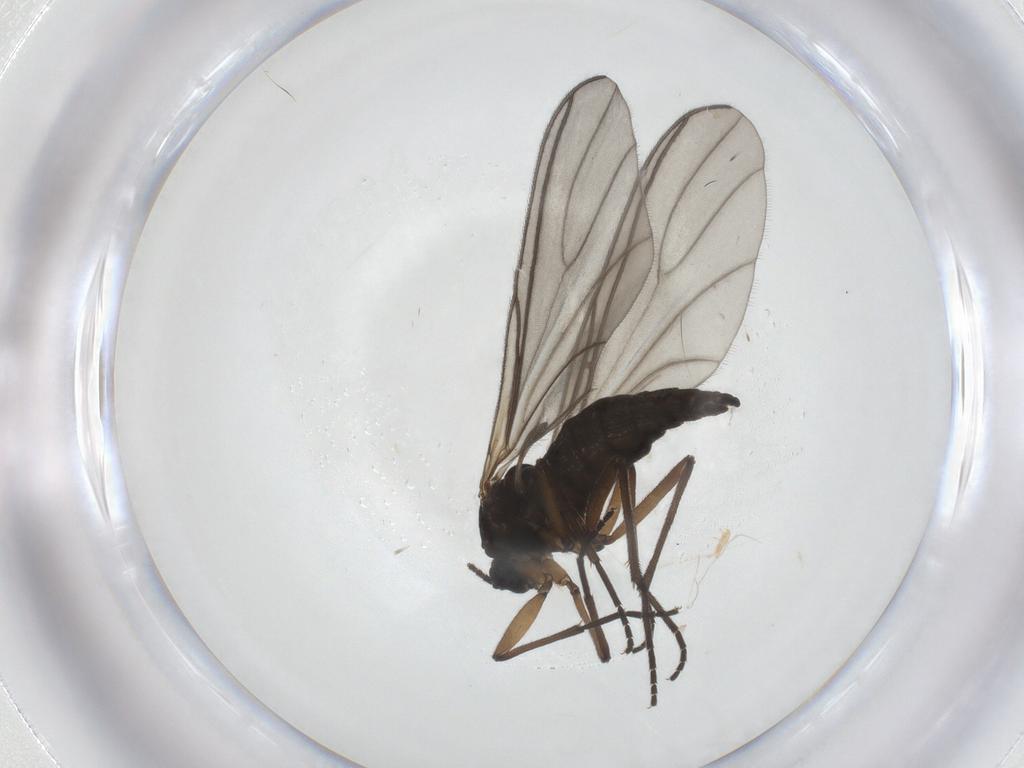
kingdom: Animalia
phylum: Arthropoda
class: Insecta
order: Diptera
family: Sciaridae
